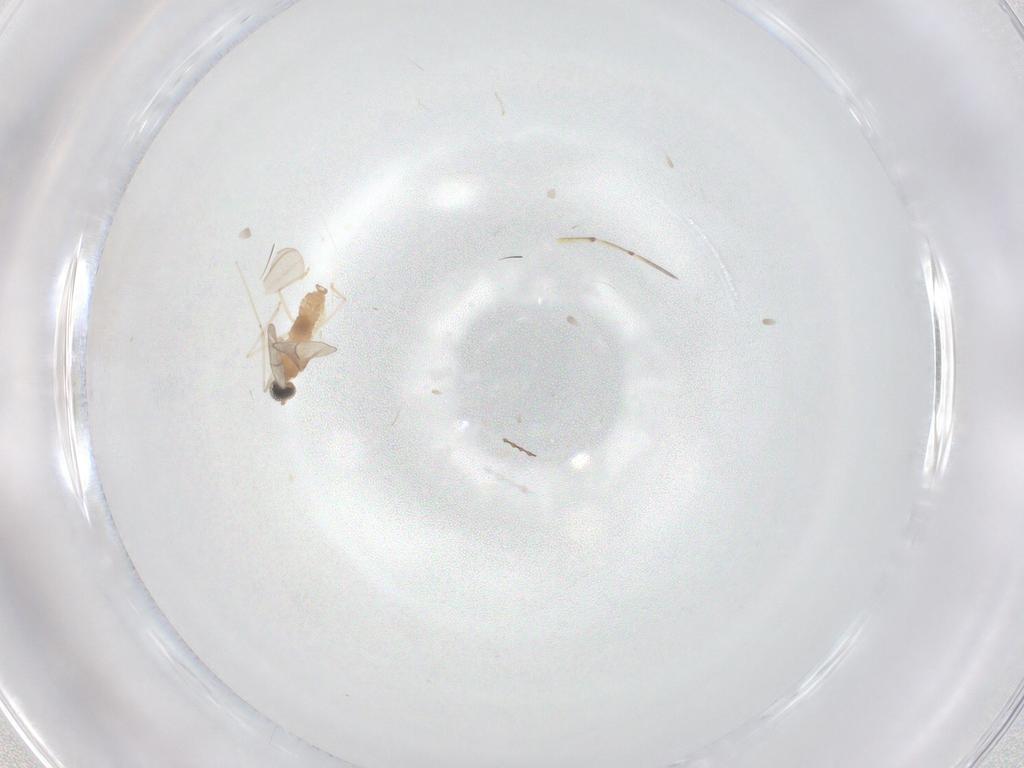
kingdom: Animalia
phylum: Arthropoda
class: Insecta
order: Diptera
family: Cecidomyiidae
